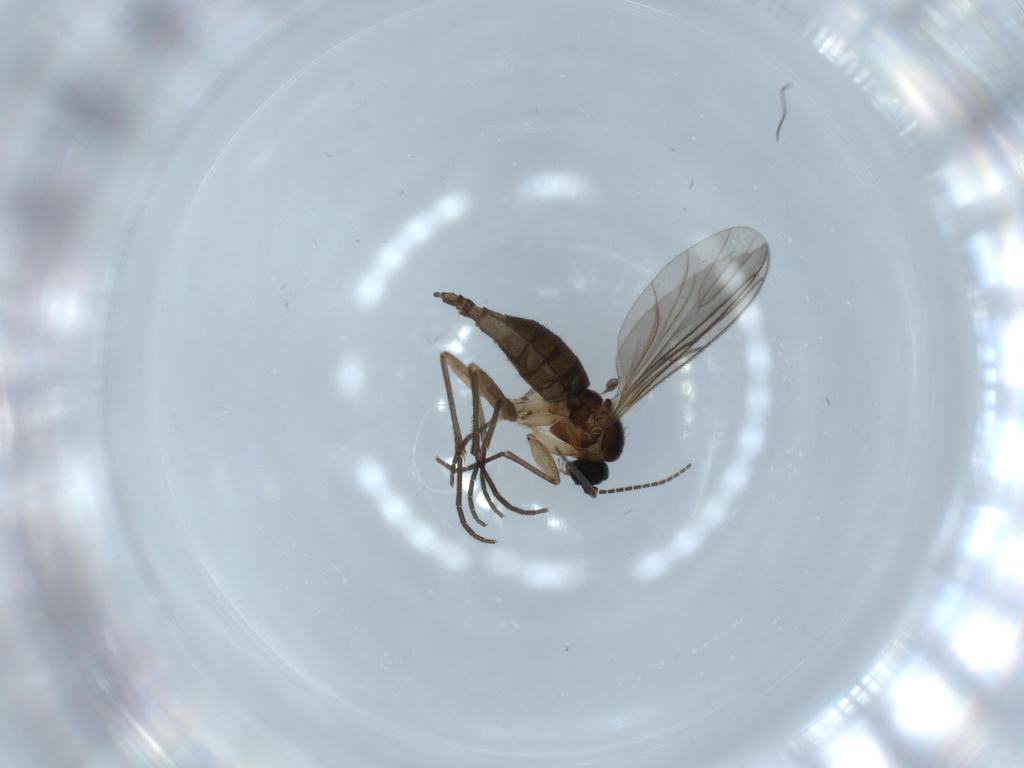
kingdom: Animalia
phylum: Arthropoda
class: Insecta
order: Diptera
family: Sciaridae
